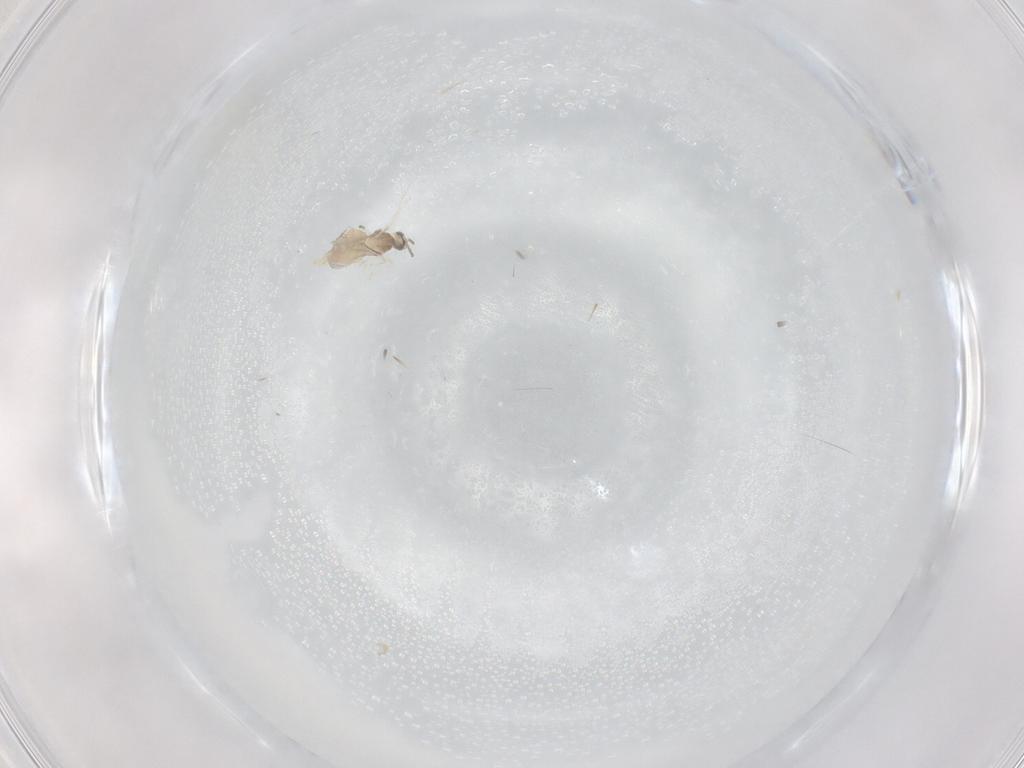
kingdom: Animalia
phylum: Arthropoda
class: Insecta
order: Diptera
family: Cecidomyiidae
